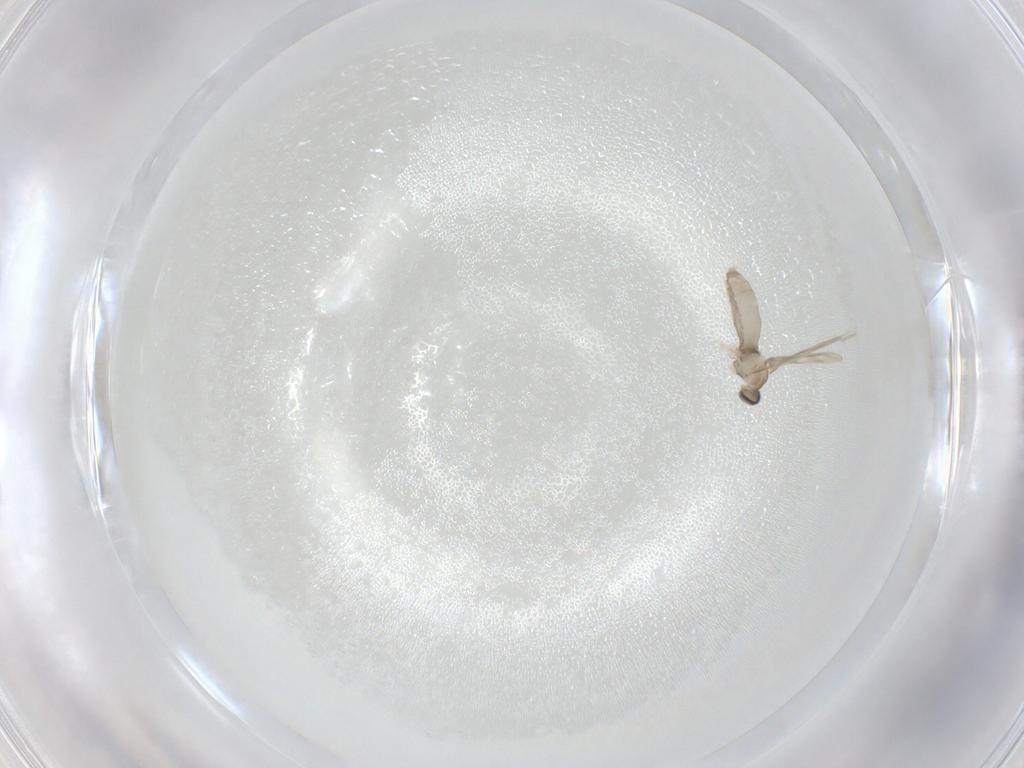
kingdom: Animalia
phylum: Arthropoda
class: Insecta
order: Diptera
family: Cecidomyiidae
